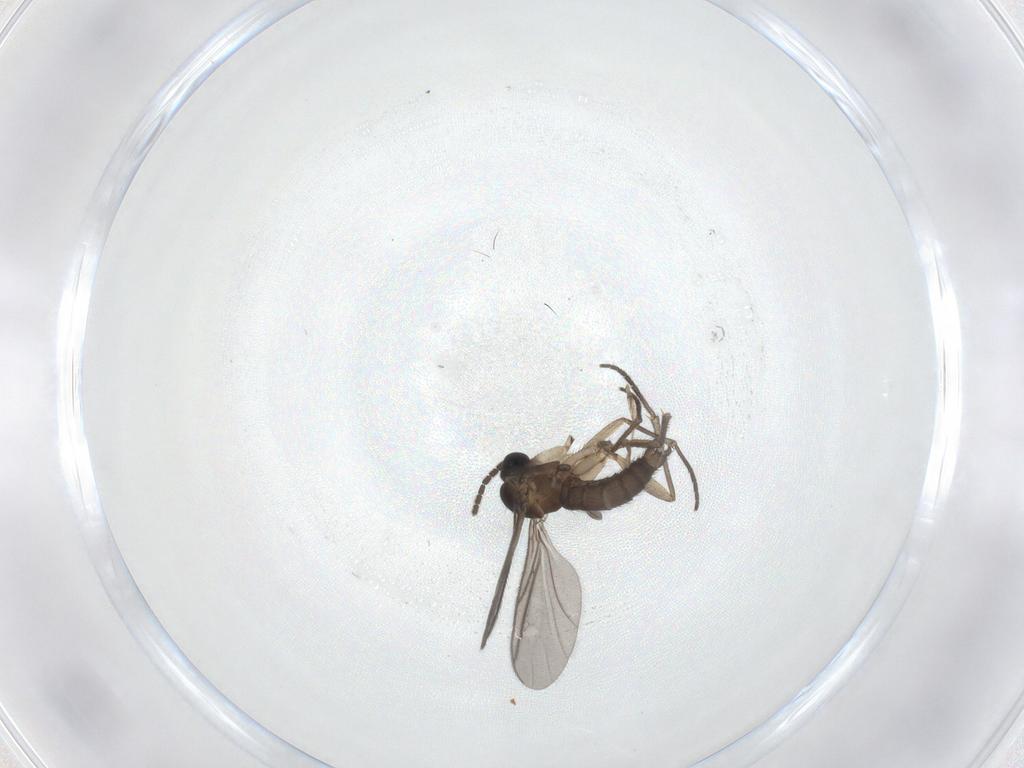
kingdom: Animalia
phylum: Arthropoda
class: Insecta
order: Diptera
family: Sciaridae
